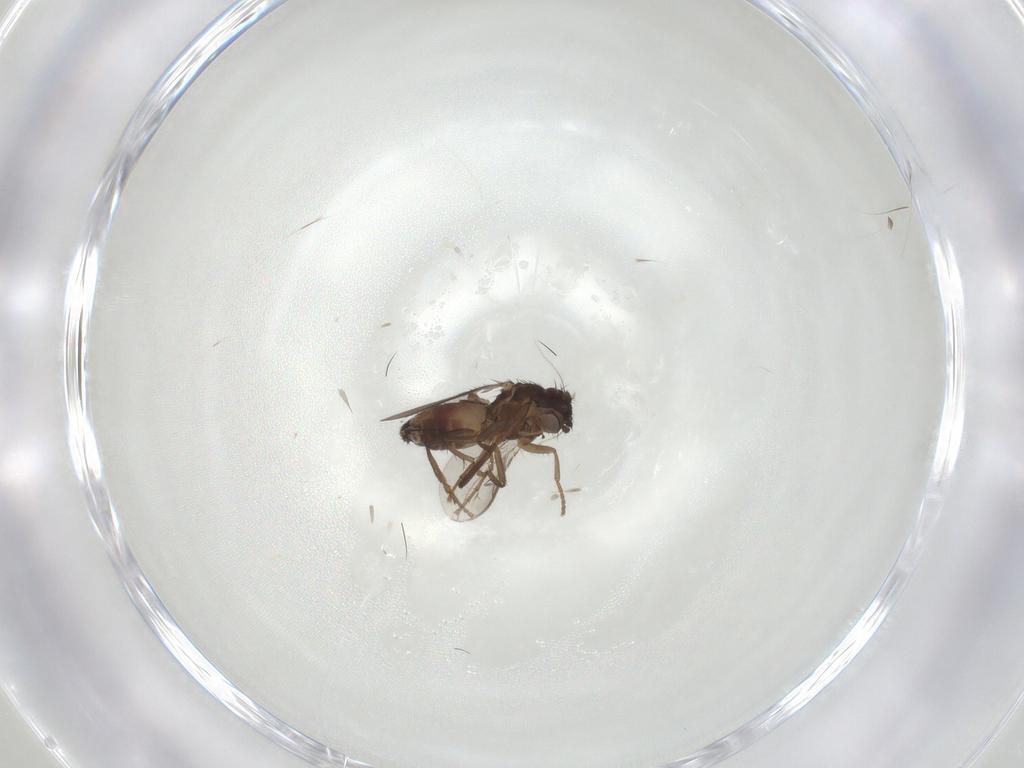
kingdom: Animalia
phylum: Arthropoda
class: Insecta
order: Diptera
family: Sphaeroceridae
